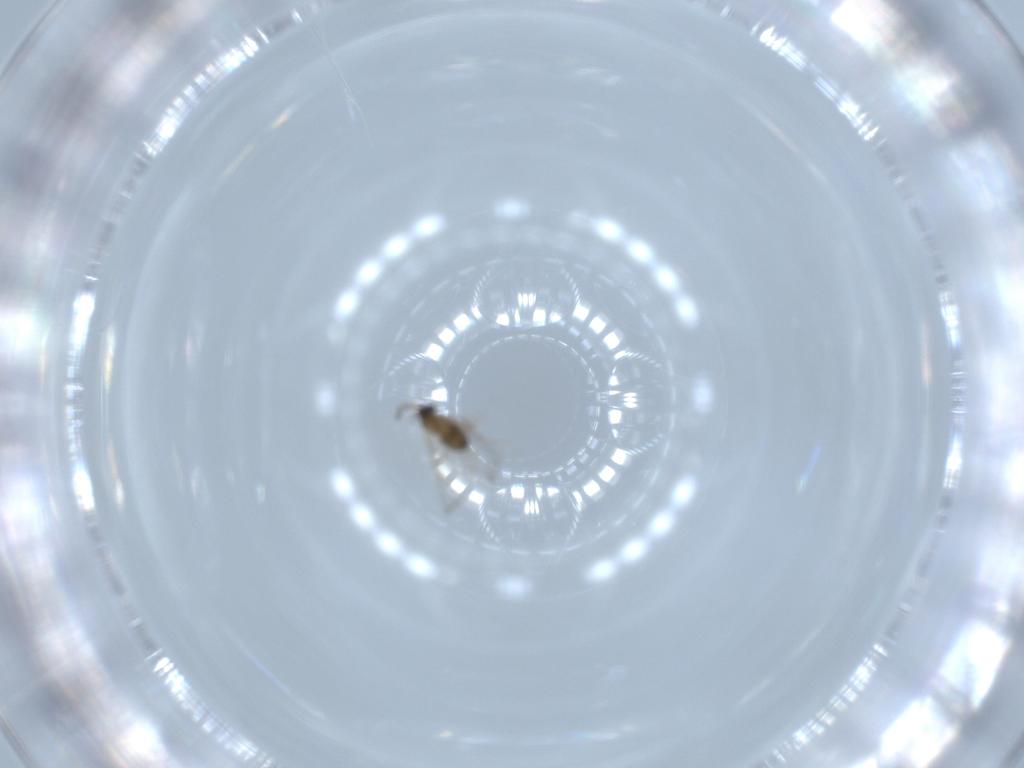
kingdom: Animalia
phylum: Arthropoda
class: Insecta
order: Diptera
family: Cecidomyiidae
